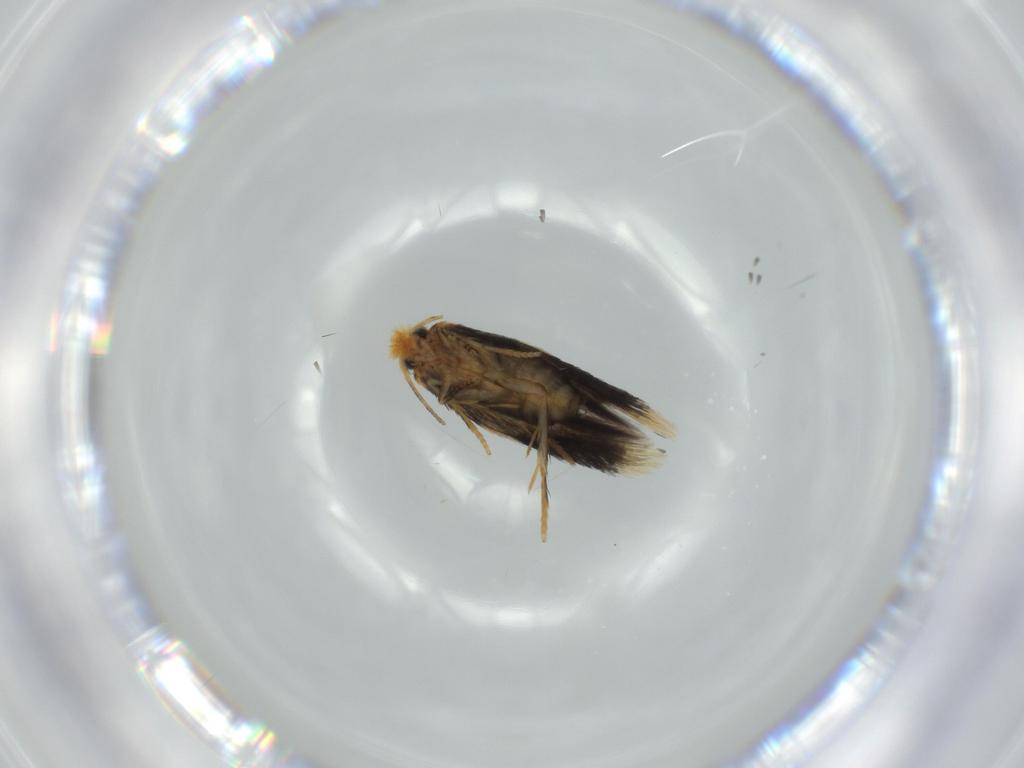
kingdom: Animalia
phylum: Arthropoda
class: Insecta
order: Lepidoptera
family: Nepticulidae
